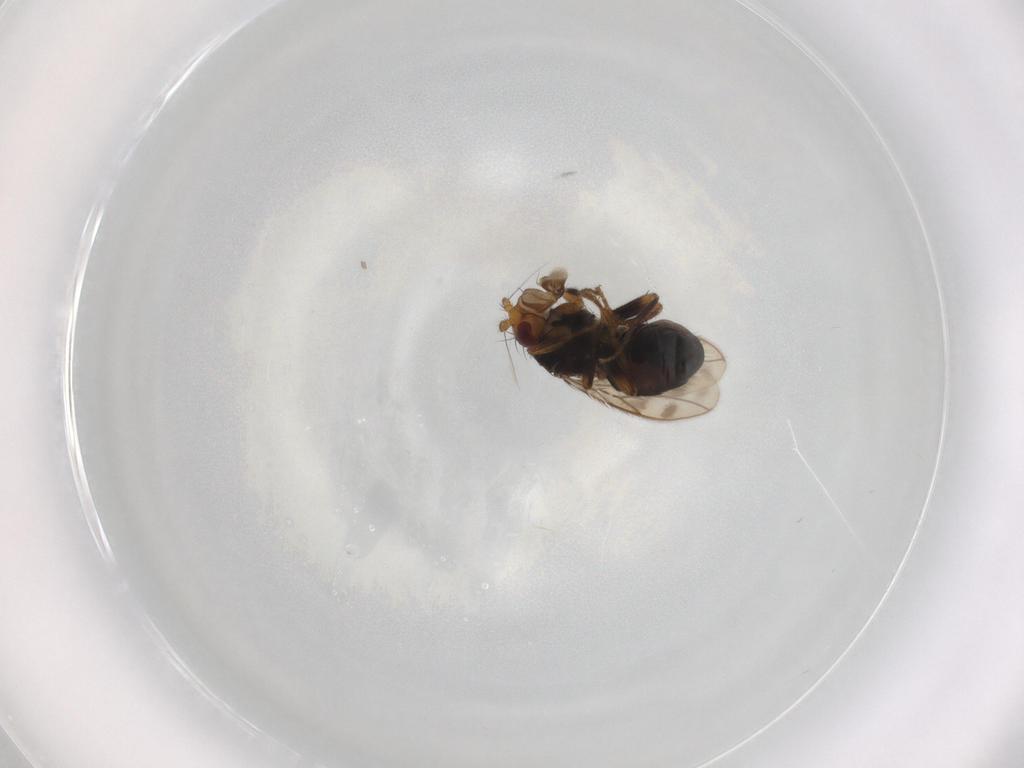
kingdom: Animalia
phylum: Arthropoda
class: Insecta
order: Diptera
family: Sphaeroceridae
